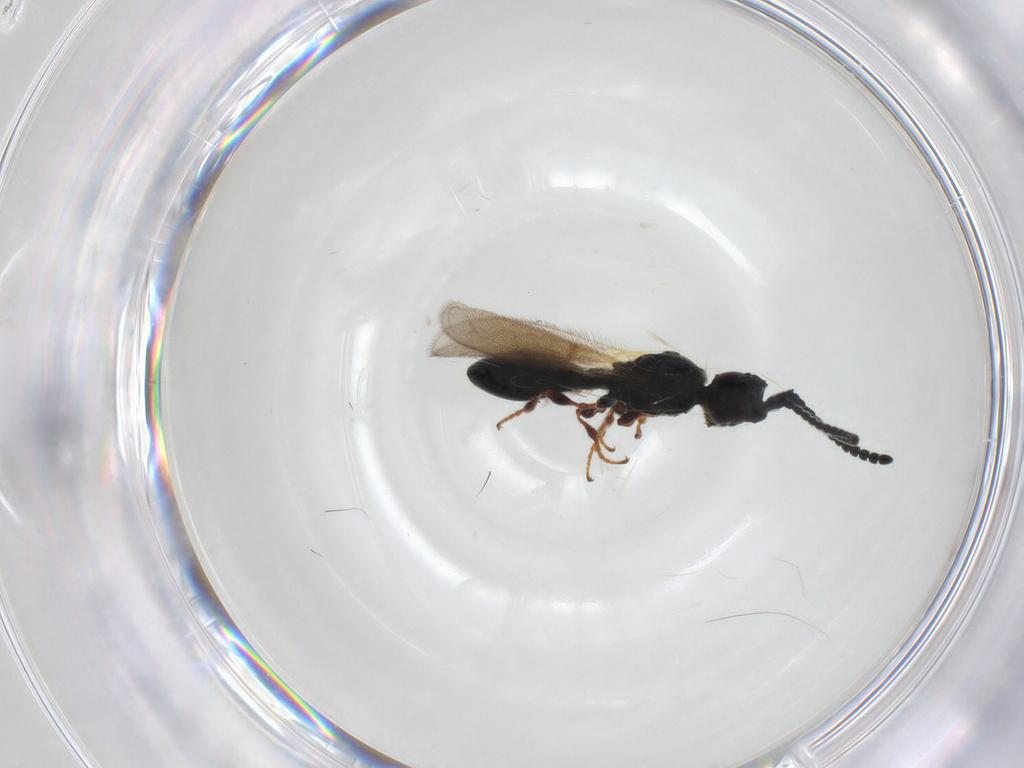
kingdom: Animalia
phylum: Arthropoda
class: Insecta
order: Hymenoptera
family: Diapriidae
